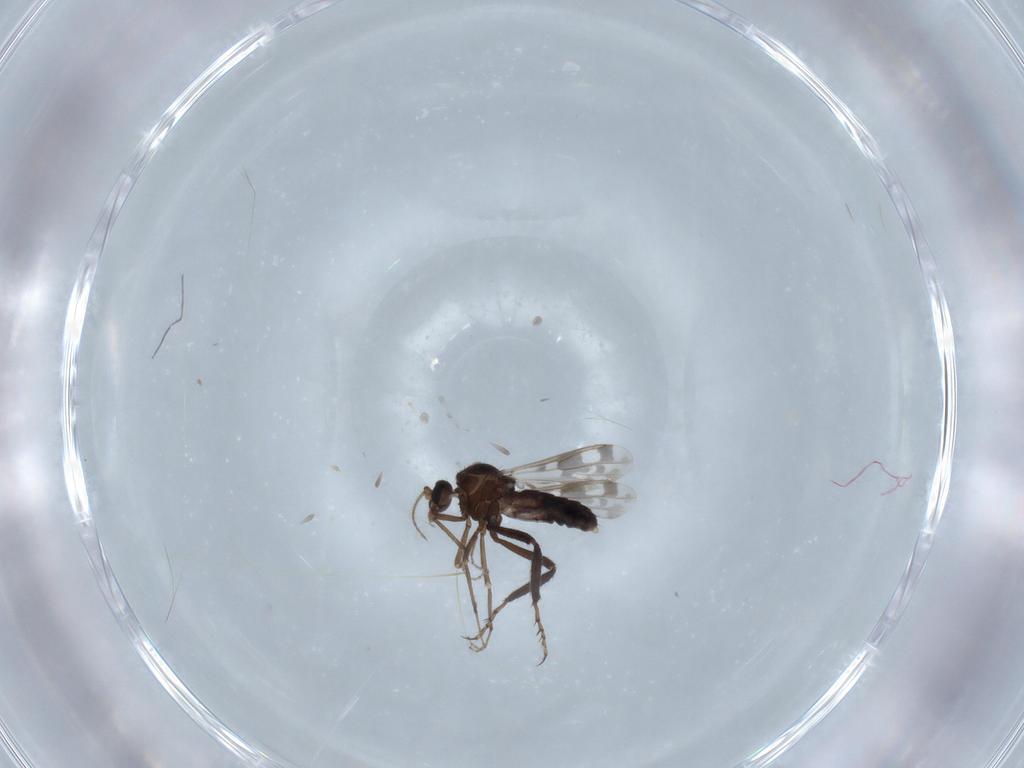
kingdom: Animalia
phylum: Arthropoda
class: Insecta
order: Diptera
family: Ceratopogonidae
